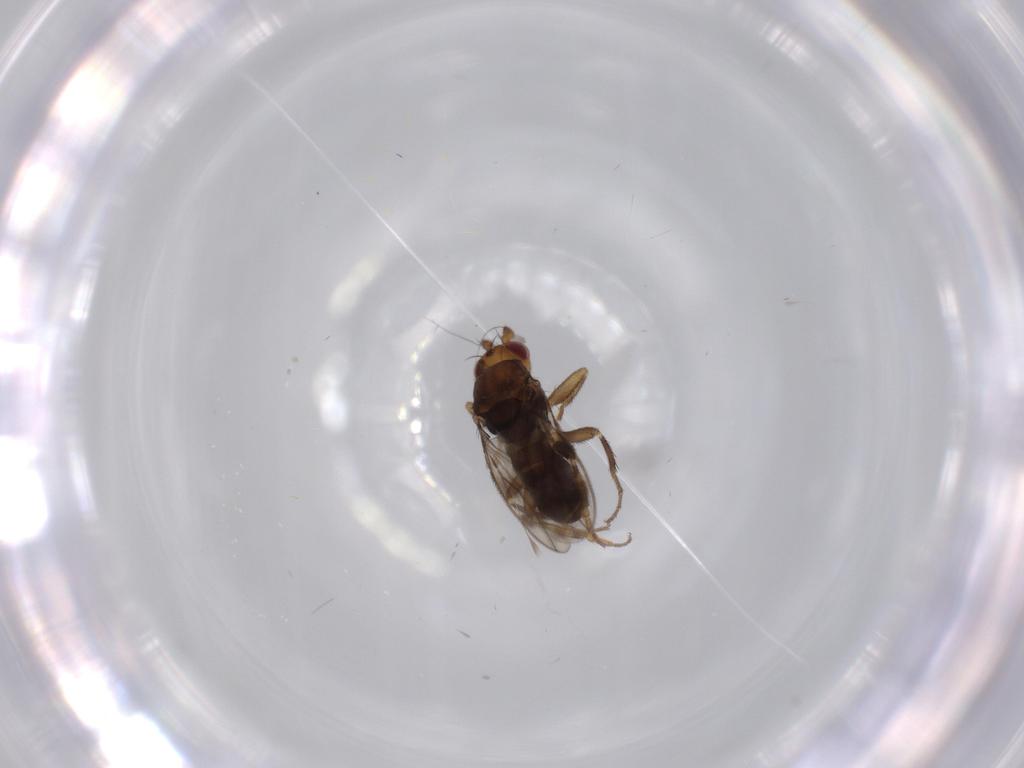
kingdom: Animalia
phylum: Arthropoda
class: Insecta
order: Diptera
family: Sphaeroceridae
